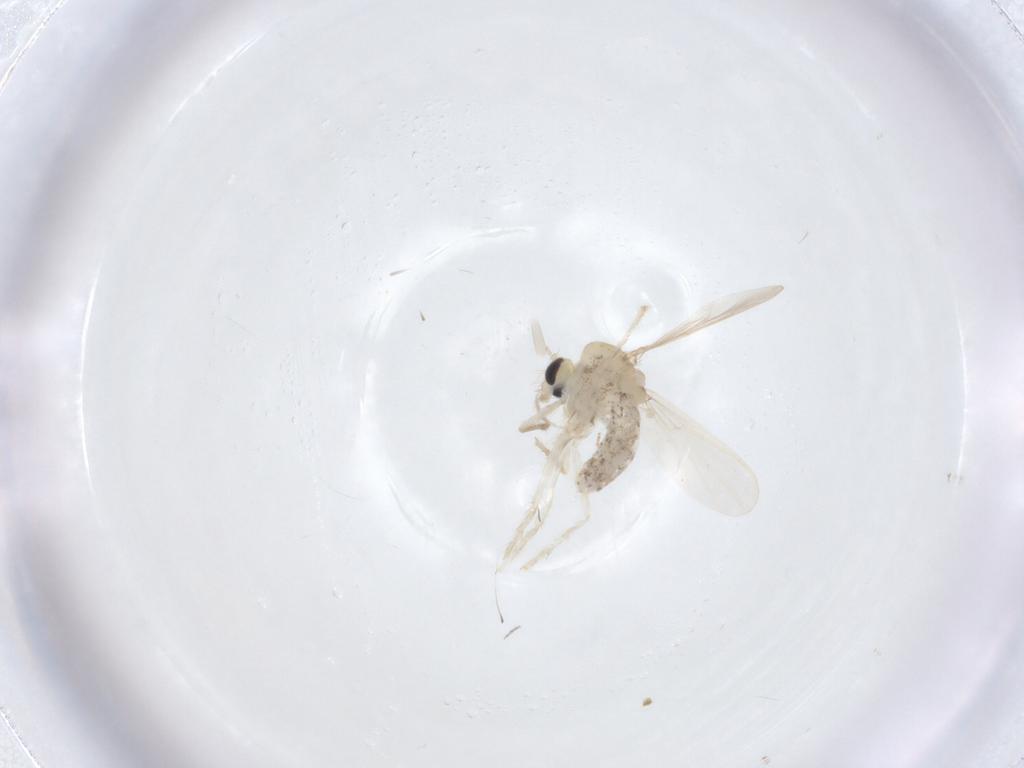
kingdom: Animalia
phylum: Arthropoda
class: Insecta
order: Diptera
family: Chironomidae
